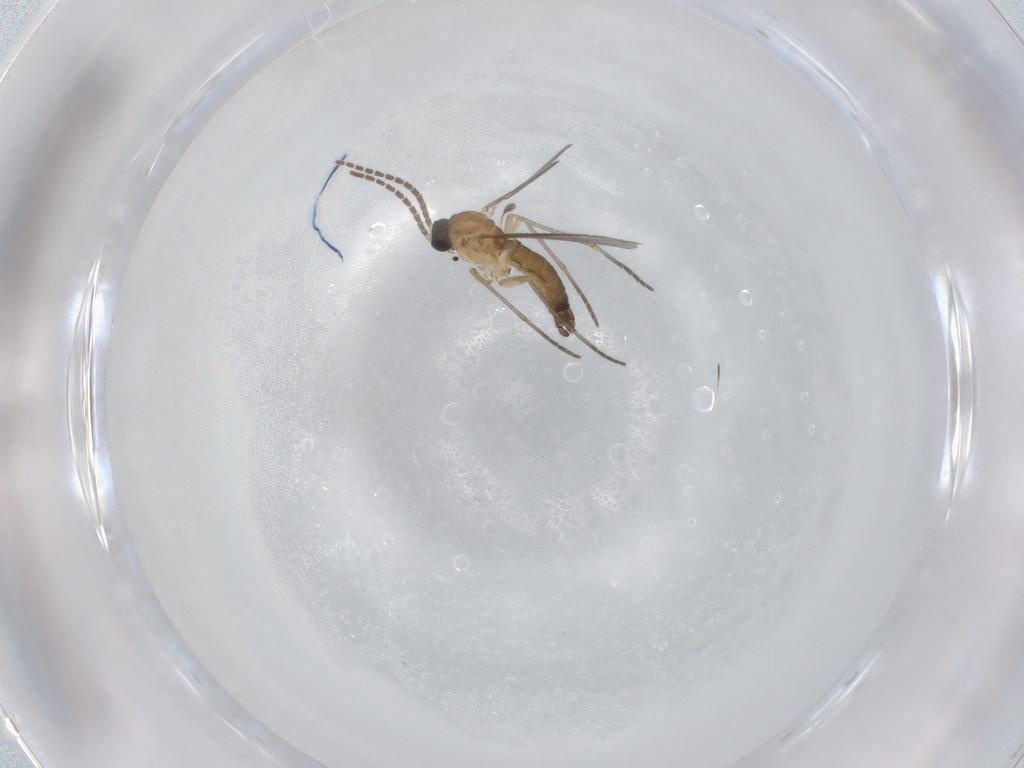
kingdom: Animalia
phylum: Arthropoda
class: Insecta
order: Diptera
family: Sciaridae
